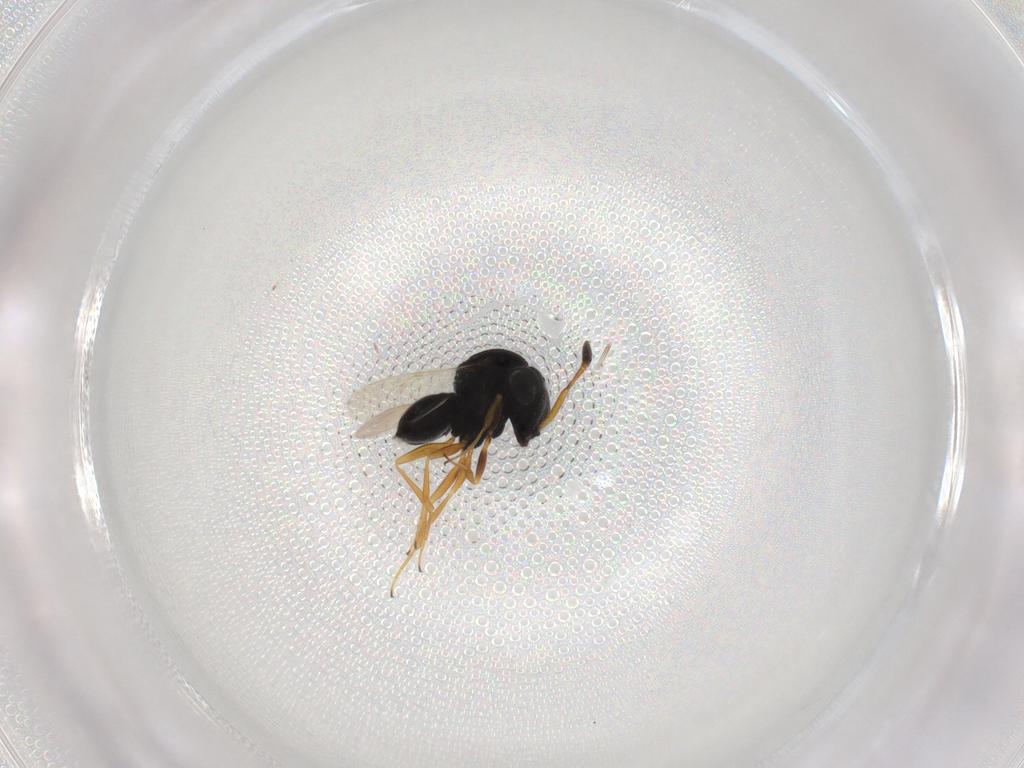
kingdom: Animalia
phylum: Arthropoda
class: Insecta
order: Hymenoptera
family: Scelionidae
